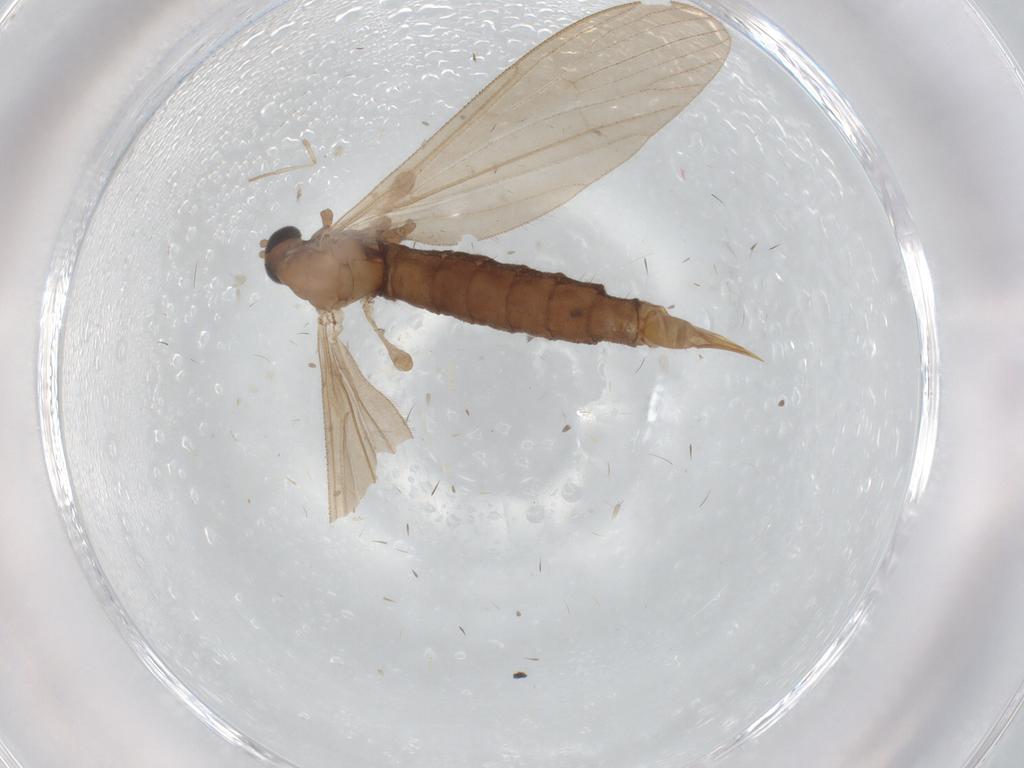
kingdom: Animalia
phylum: Arthropoda
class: Insecta
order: Diptera
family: Limoniidae
